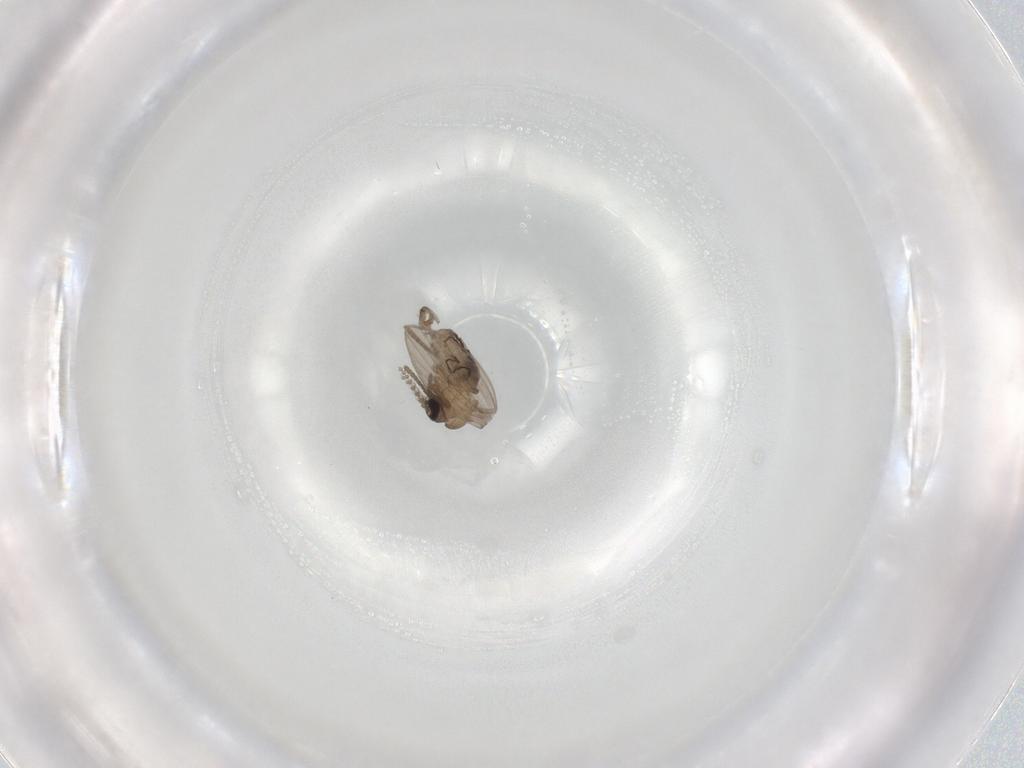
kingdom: Animalia
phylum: Arthropoda
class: Insecta
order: Diptera
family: Psychodidae
